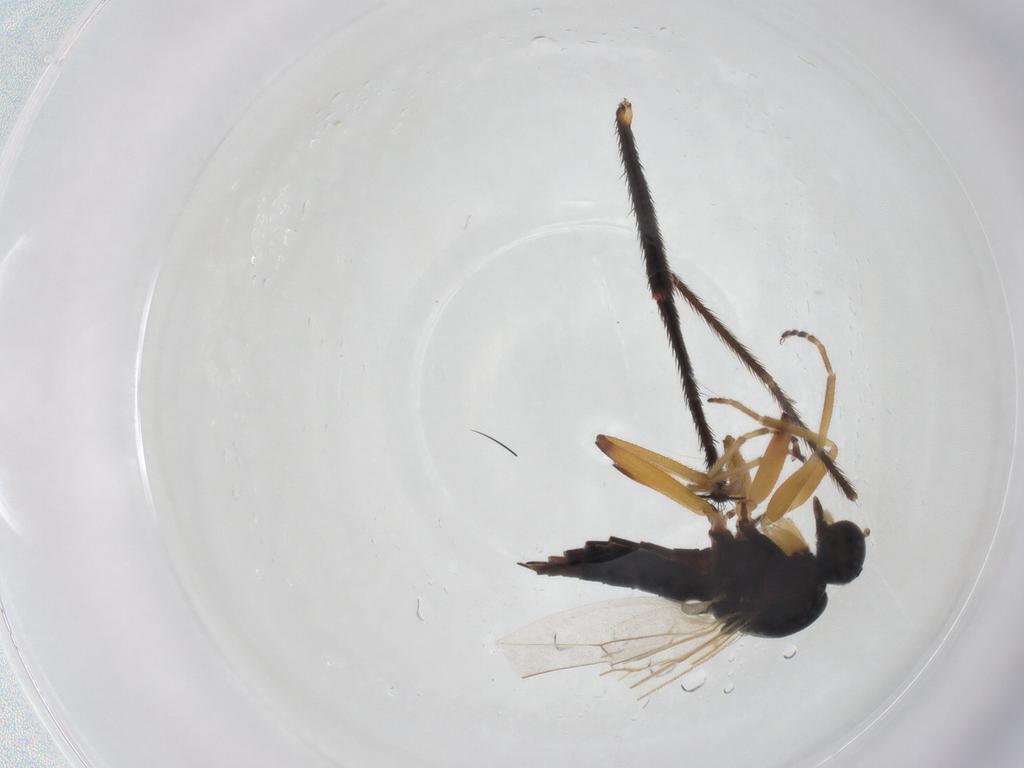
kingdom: Animalia
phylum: Arthropoda
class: Insecta
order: Diptera
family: Hybotidae
